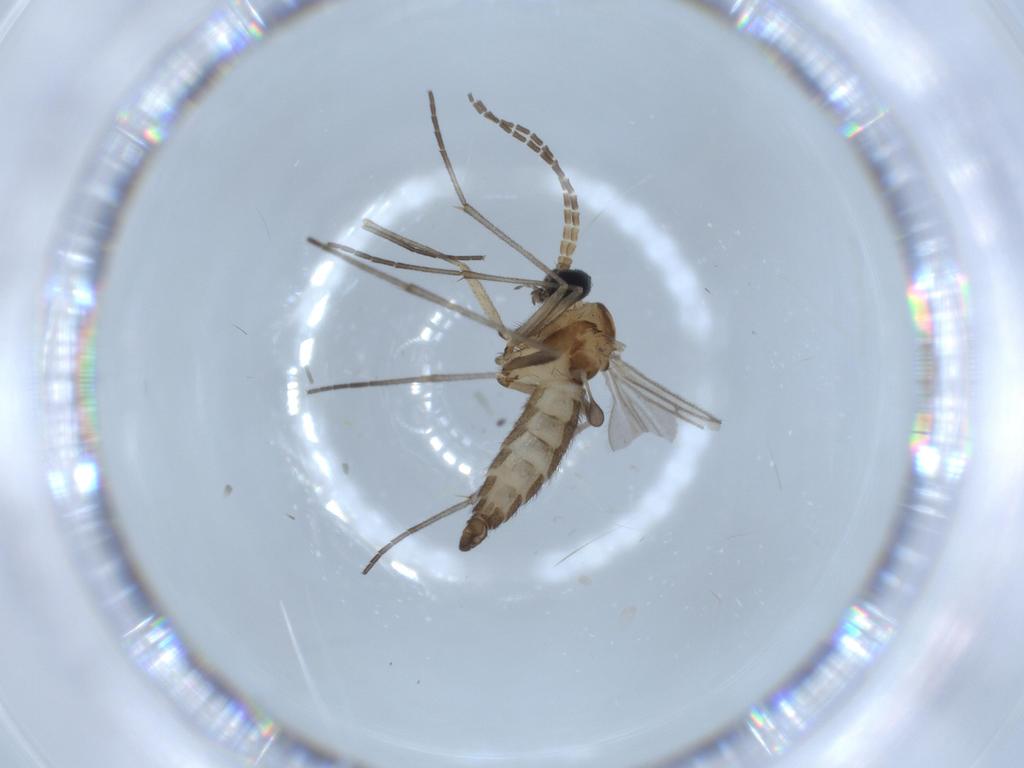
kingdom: Animalia
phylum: Arthropoda
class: Insecta
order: Diptera
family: Sciaridae
